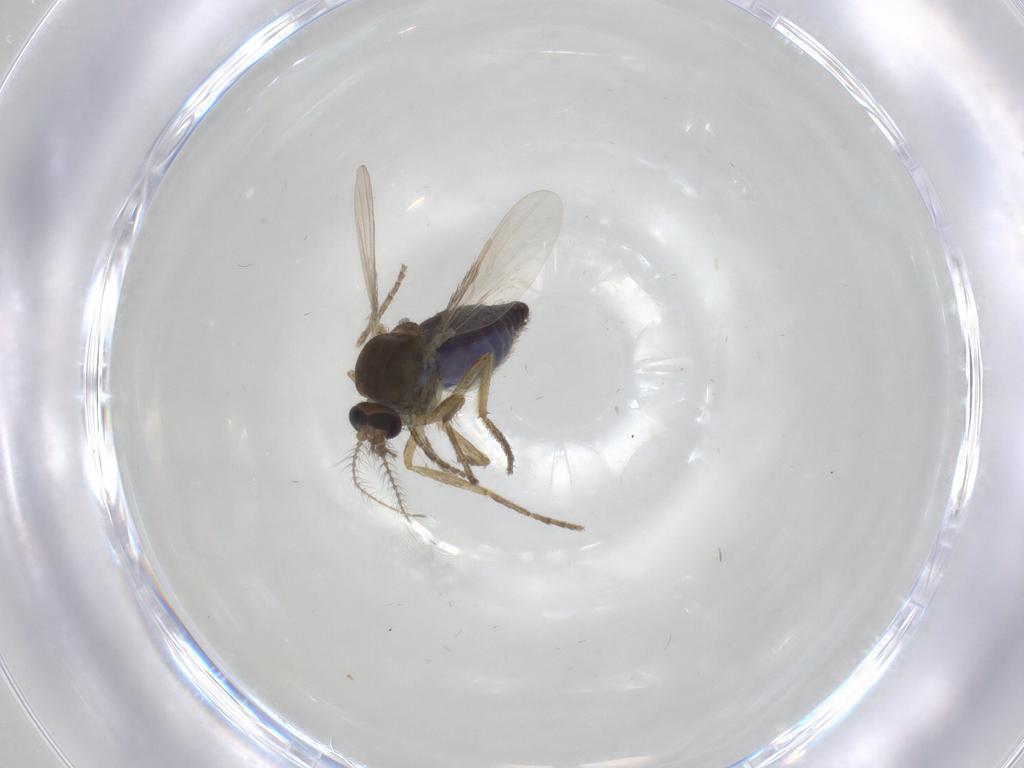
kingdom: Animalia
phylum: Arthropoda
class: Insecta
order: Diptera
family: Ceratopogonidae
